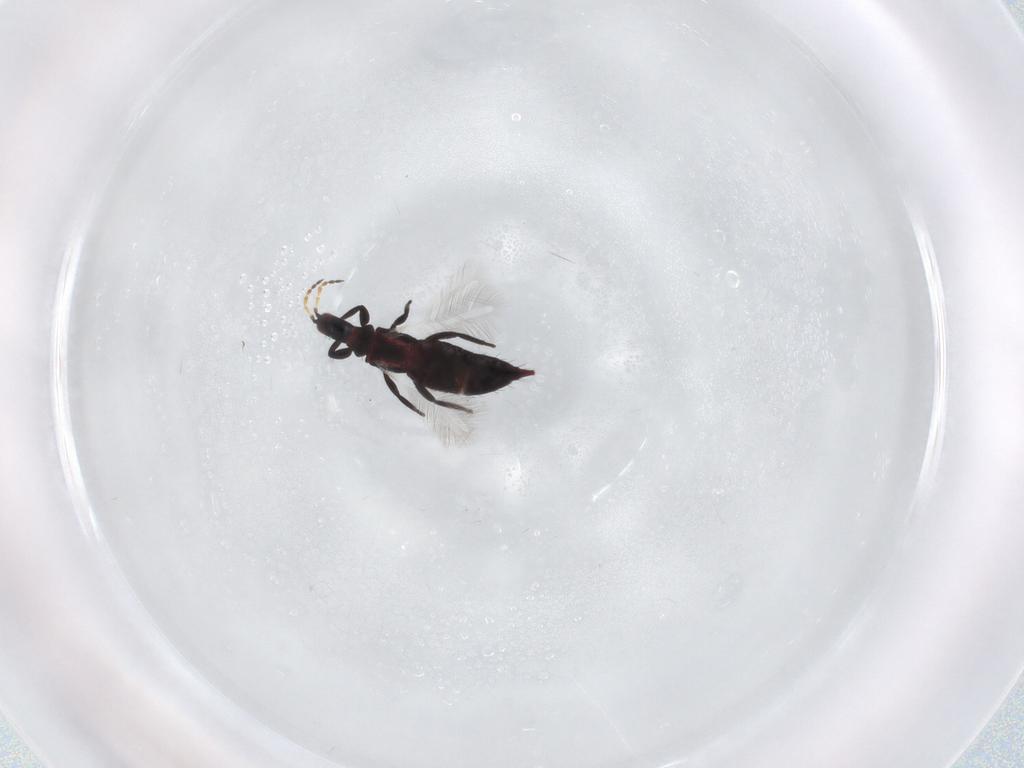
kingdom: Animalia
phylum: Arthropoda
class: Insecta
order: Thysanoptera
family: Phlaeothripidae
